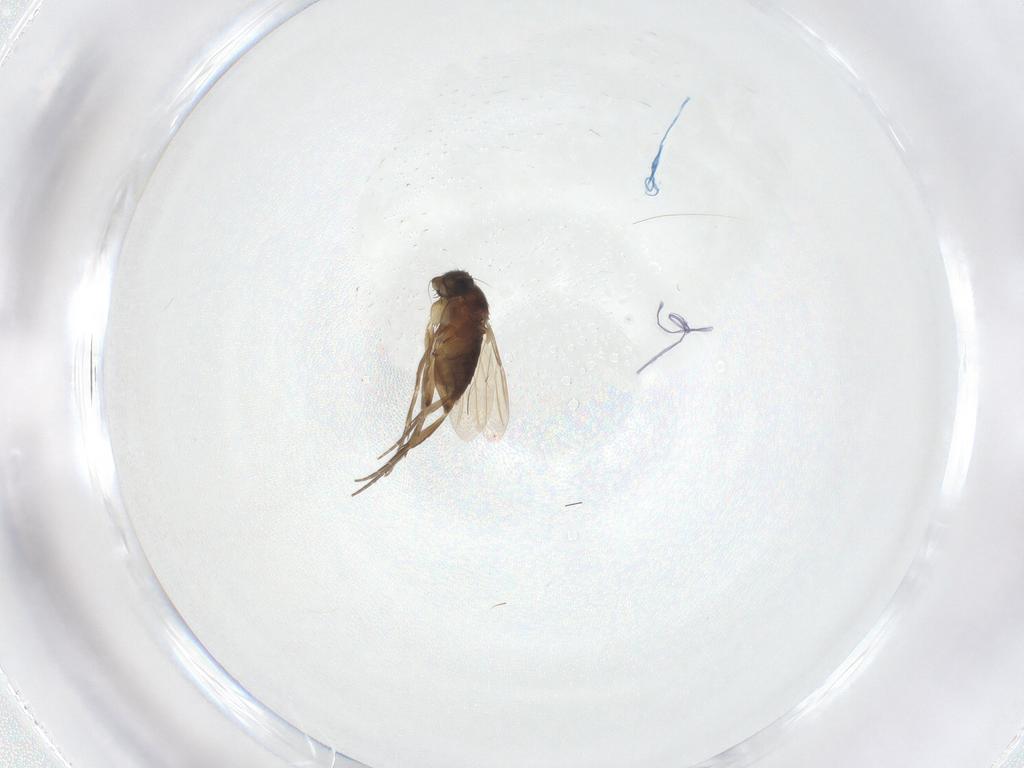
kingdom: Animalia
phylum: Arthropoda
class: Insecta
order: Diptera
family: Phoridae
